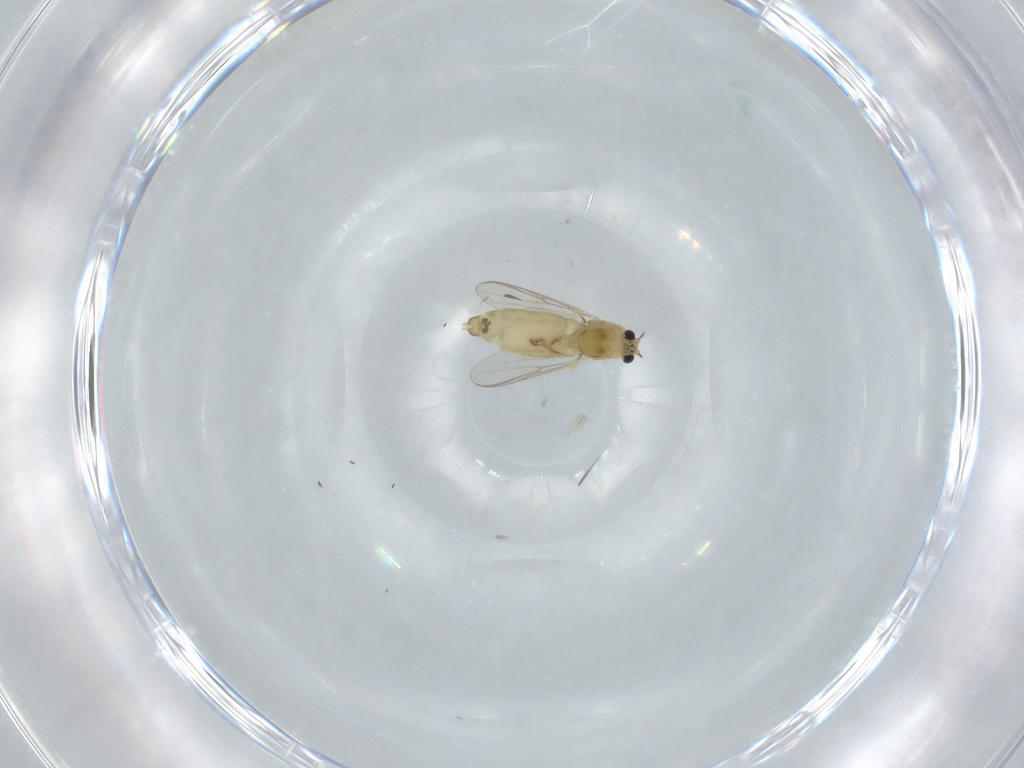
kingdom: Animalia
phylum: Arthropoda
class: Insecta
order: Diptera
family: Chironomidae
